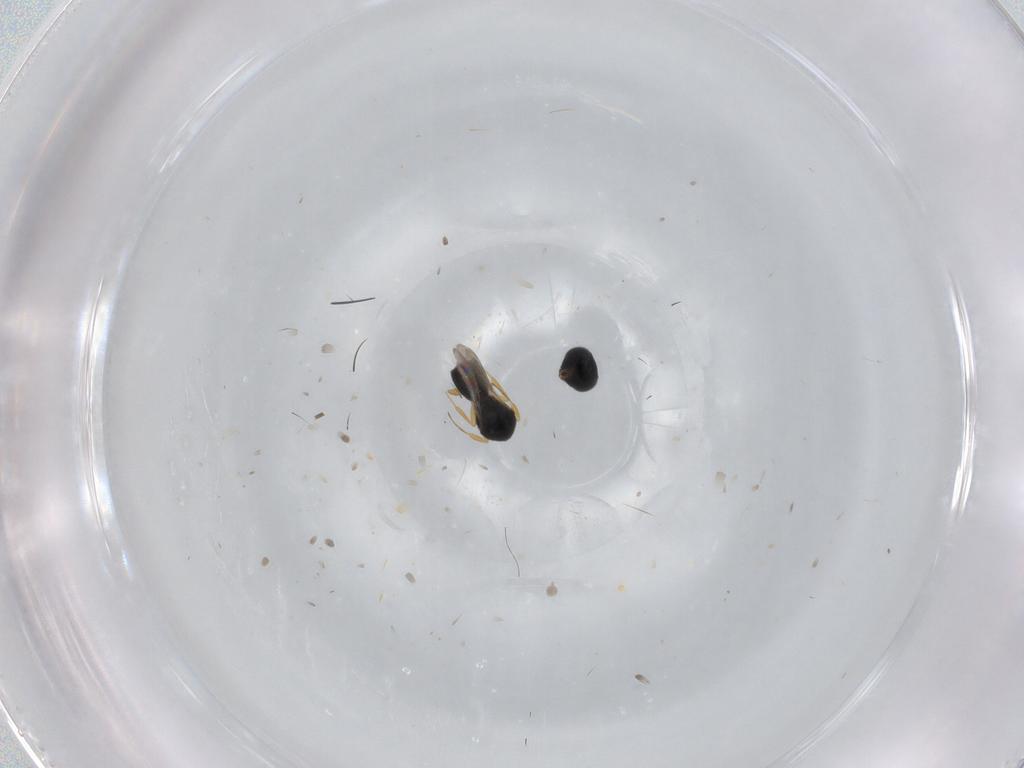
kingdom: Animalia
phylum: Arthropoda
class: Insecta
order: Hymenoptera
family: Scelionidae
